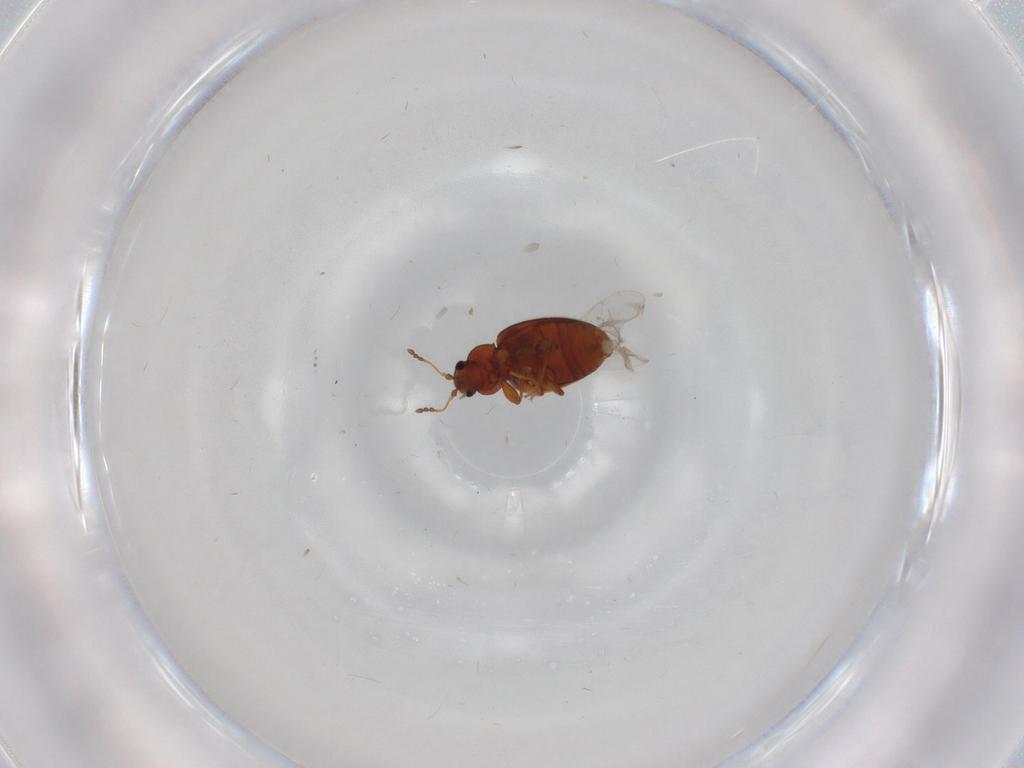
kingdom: Animalia
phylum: Arthropoda
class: Insecta
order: Coleoptera
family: Latridiidae
